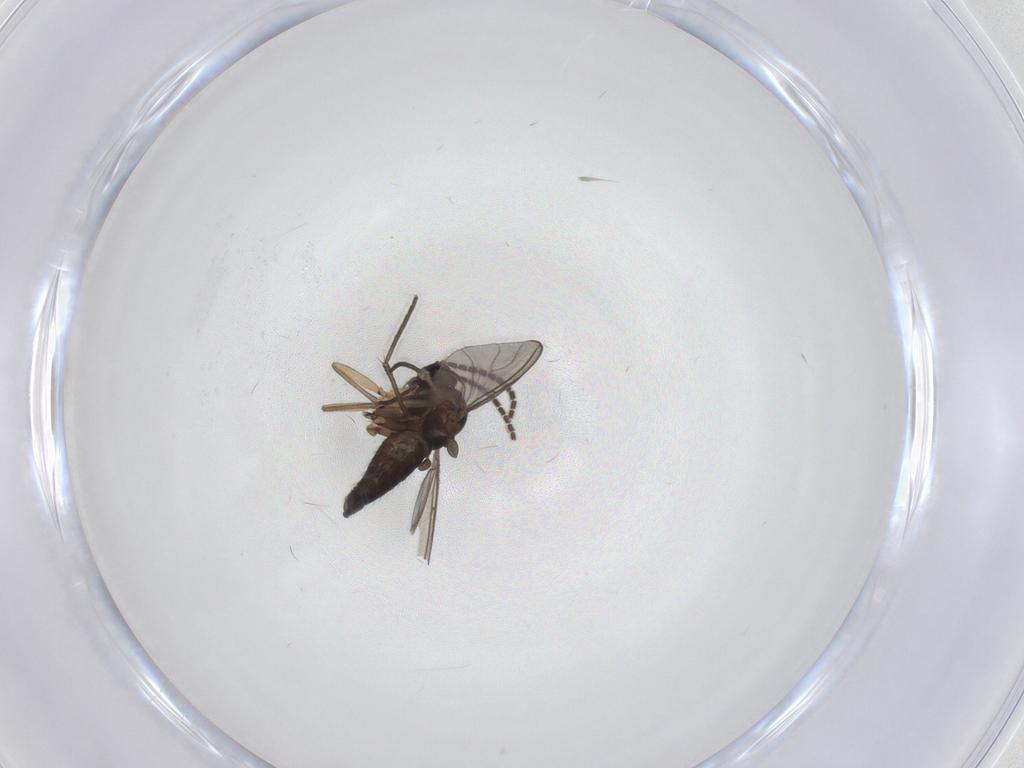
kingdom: Animalia
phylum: Arthropoda
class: Insecta
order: Diptera
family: Sciaridae
